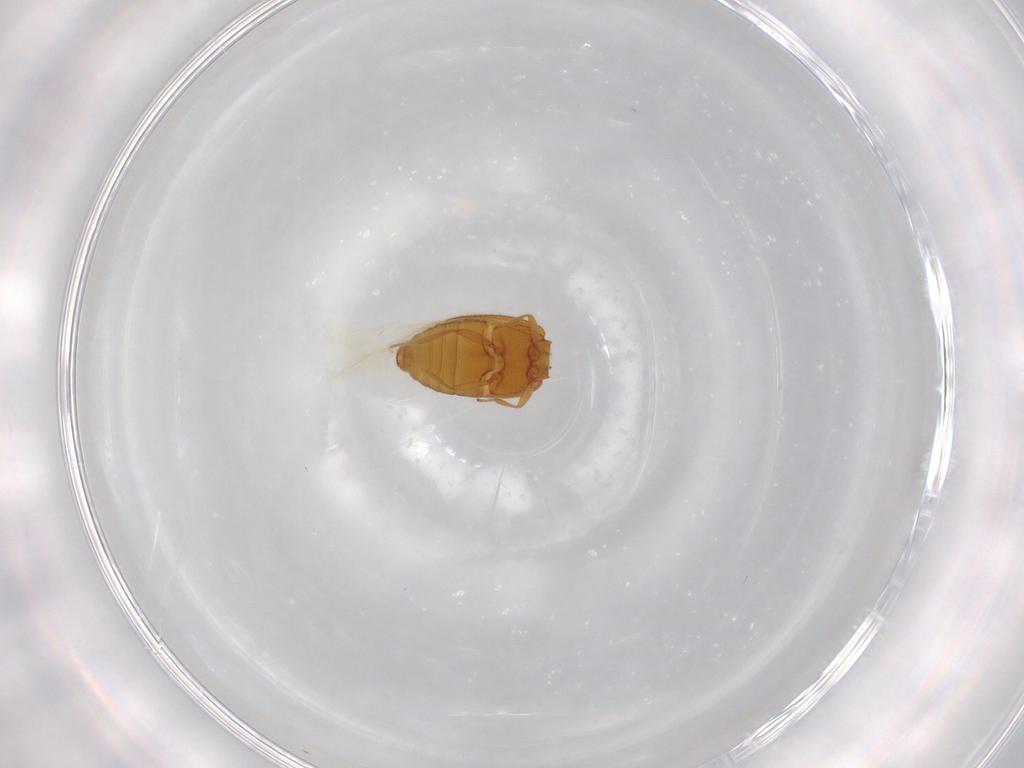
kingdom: Animalia
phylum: Arthropoda
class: Insecta
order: Coleoptera
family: Latridiidae
